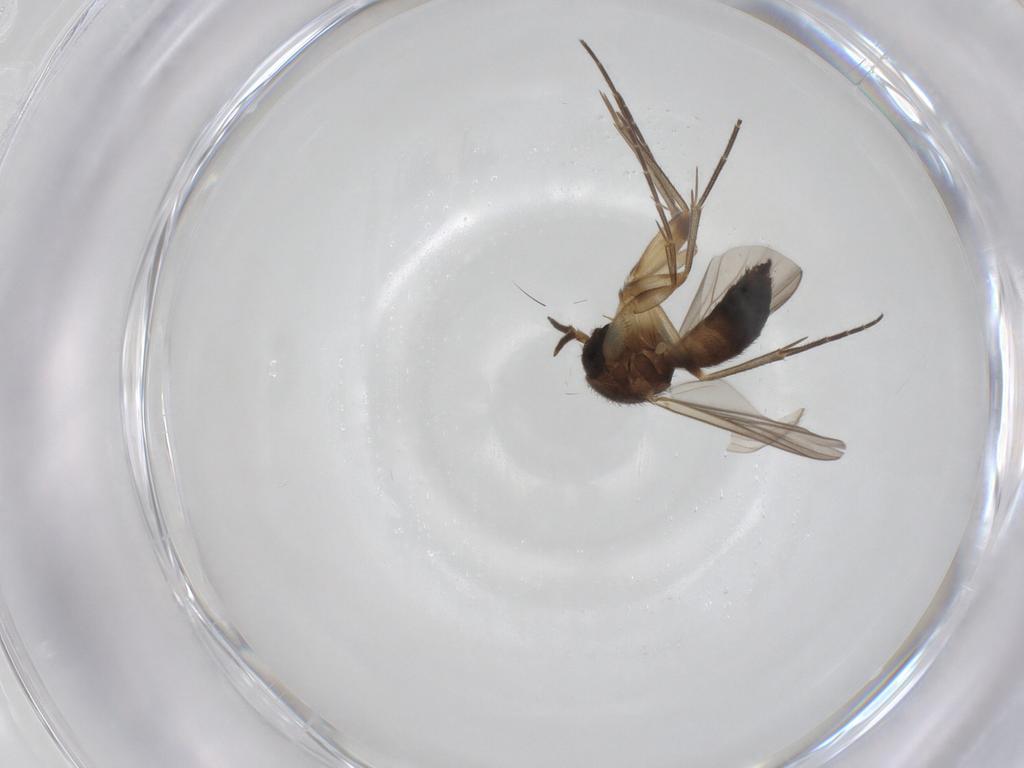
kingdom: Animalia
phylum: Arthropoda
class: Insecta
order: Diptera
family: Mycetophilidae
